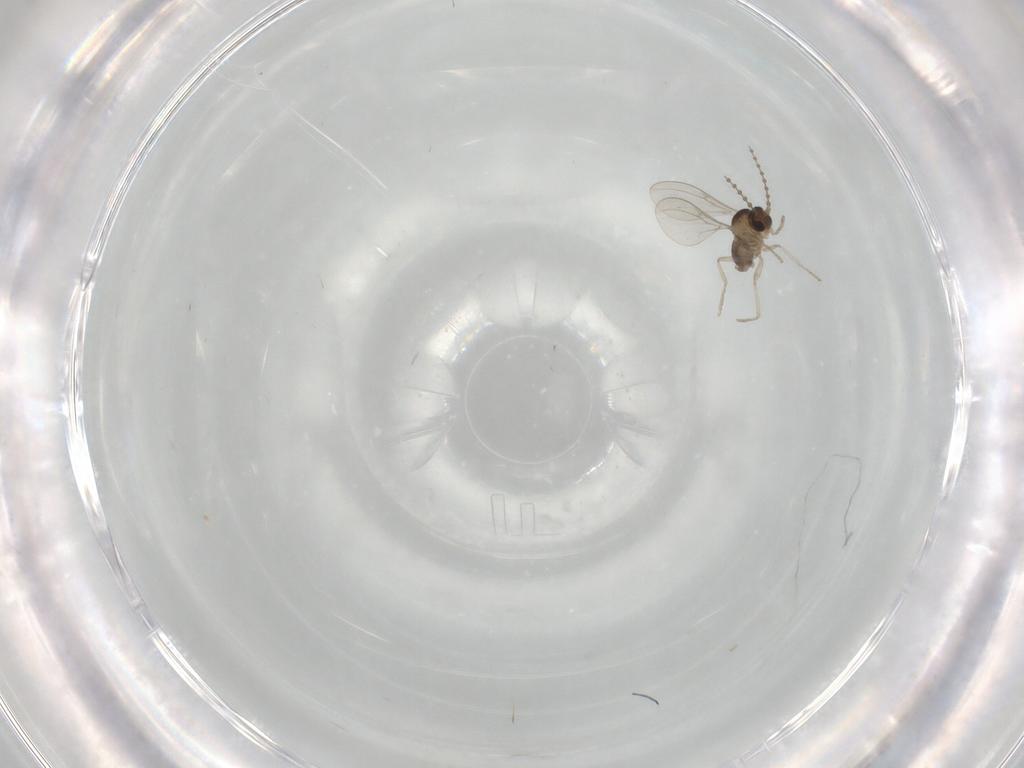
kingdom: Animalia
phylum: Arthropoda
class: Insecta
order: Diptera
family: Cecidomyiidae
